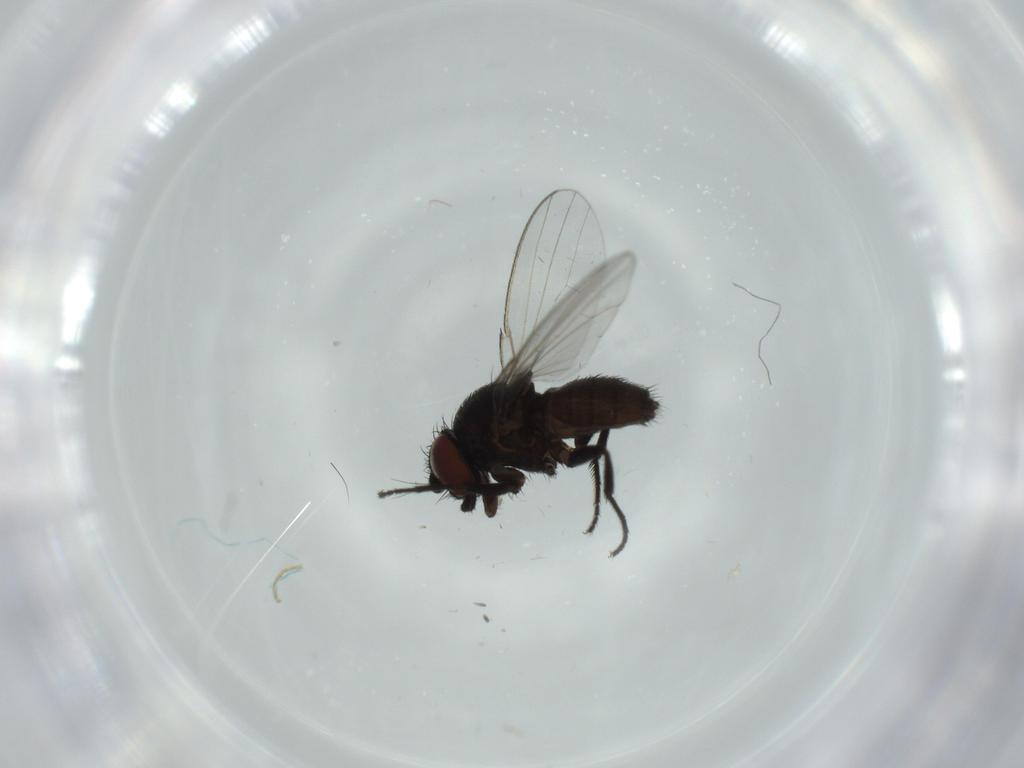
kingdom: Animalia
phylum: Arthropoda
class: Insecta
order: Diptera
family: Milichiidae
